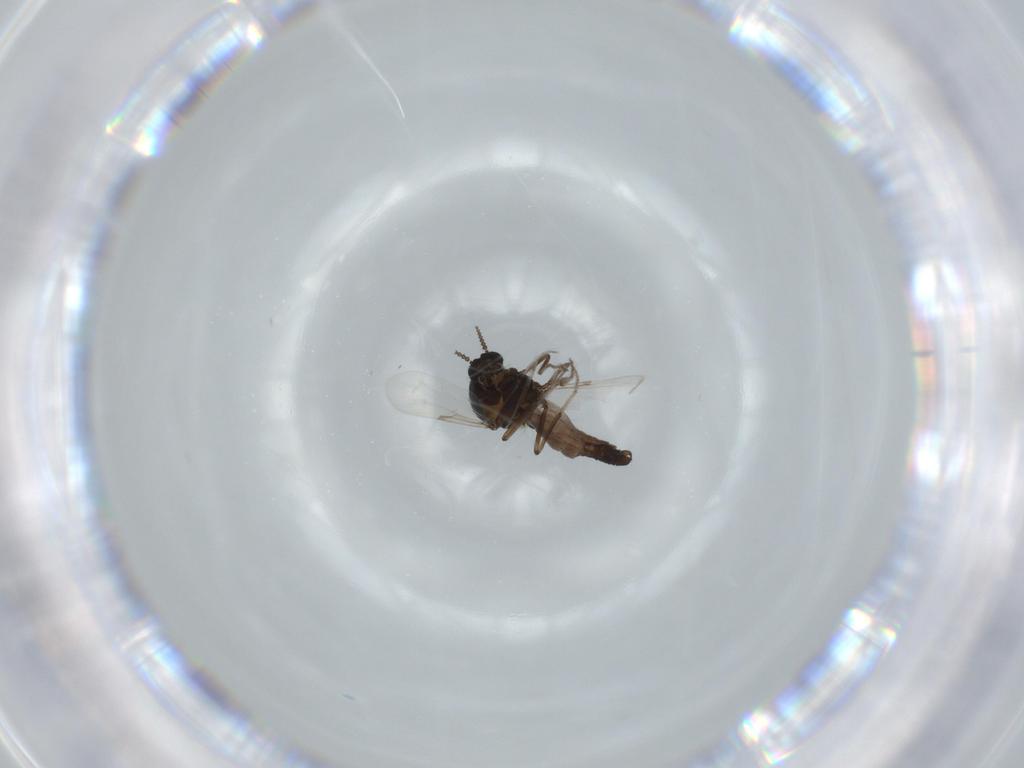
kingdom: Animalia
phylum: Arthropoda
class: Insecta
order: Diptera
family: Ceratopogonidae
